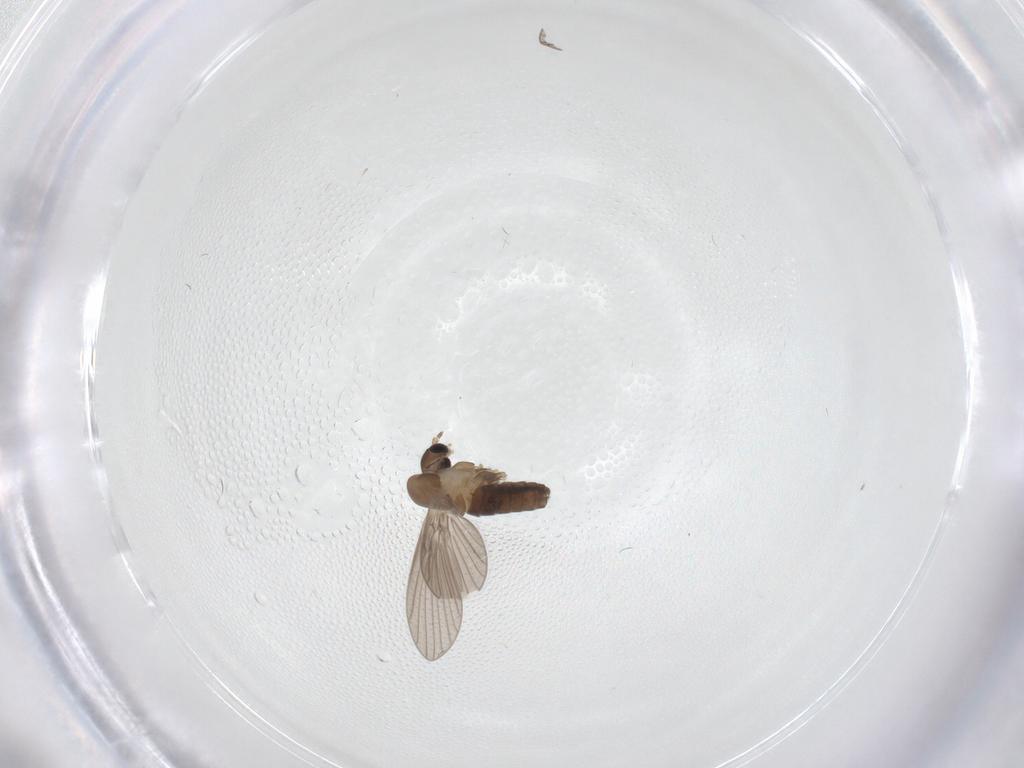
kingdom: Animalia
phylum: Arthropoda
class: Insecta
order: Diptera
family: Psychodidae
